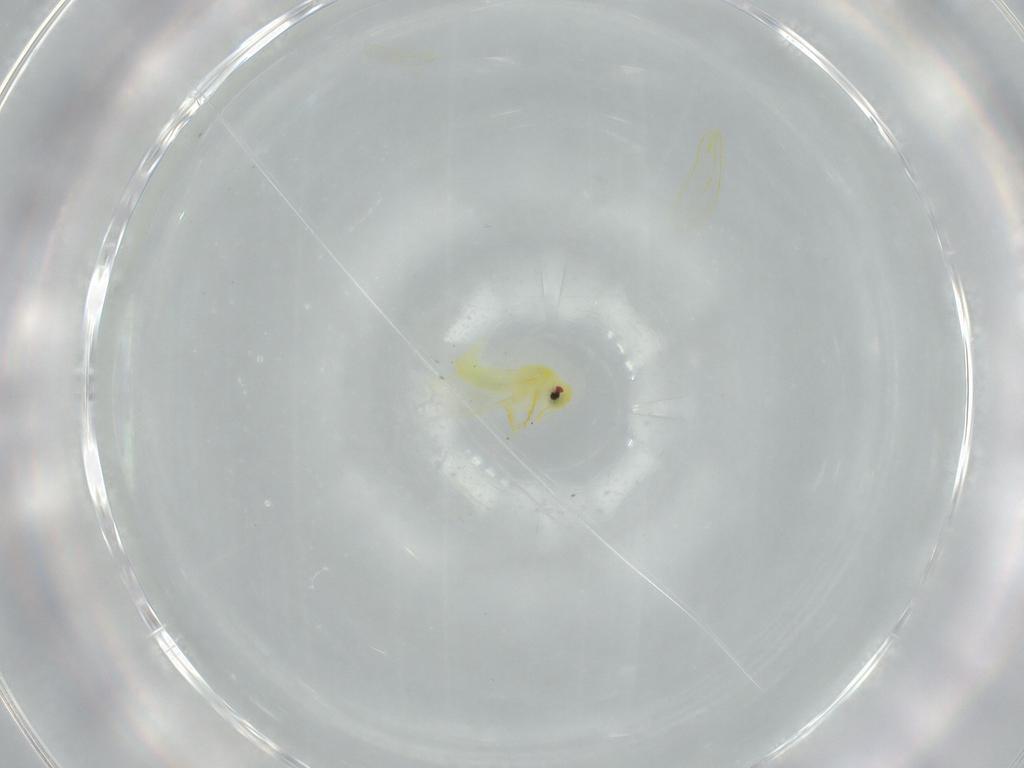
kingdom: Animalia
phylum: Arthropoda
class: Insecta
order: Hemiptera
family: Aleyrodidae
